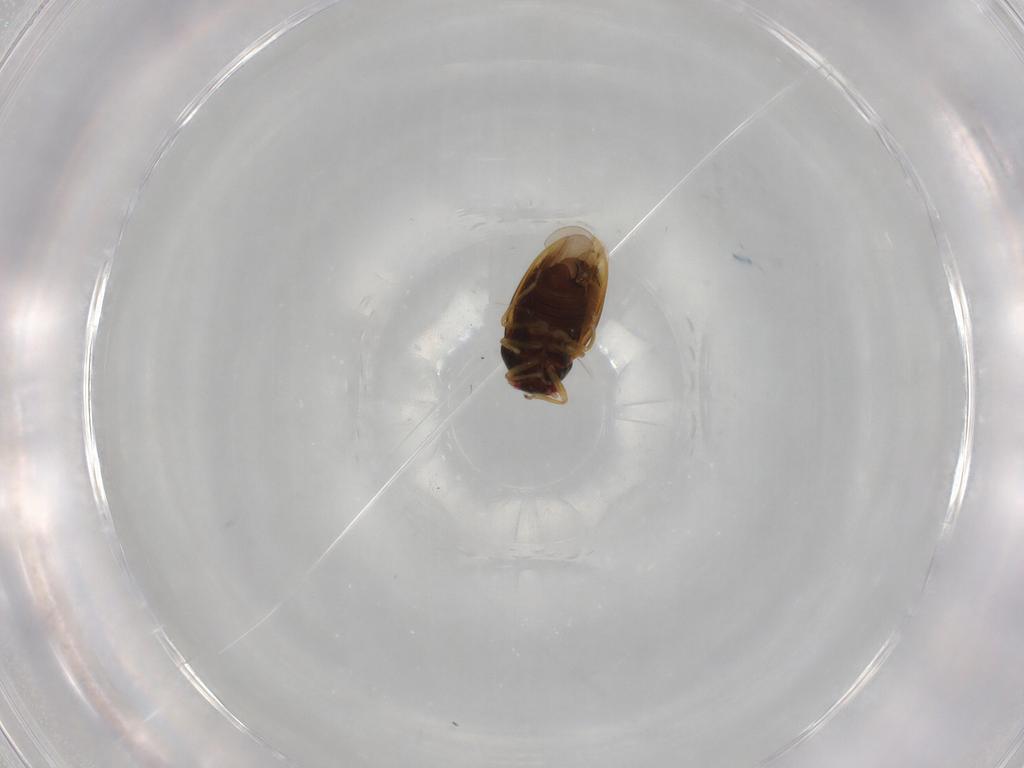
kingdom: Animalia
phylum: Arthropoda
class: Insecta
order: Hemiptera
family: Schizopteridae
